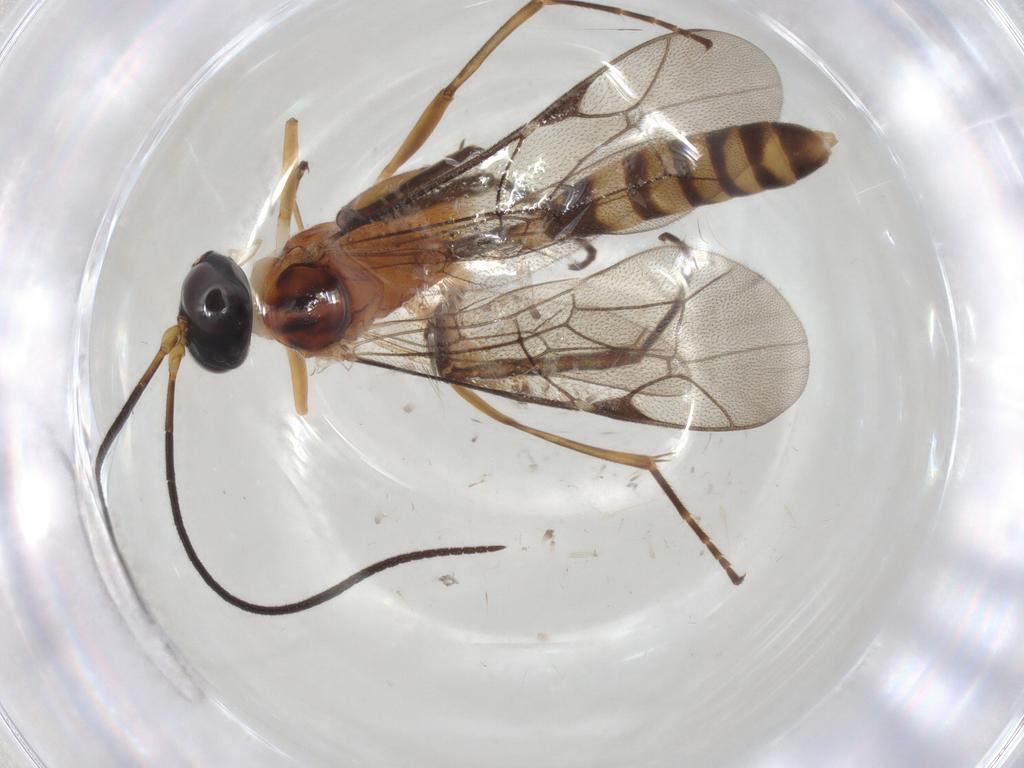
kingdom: Animalia
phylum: Arthropoda
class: Insecta
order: Hymenoptera
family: Braconidae
